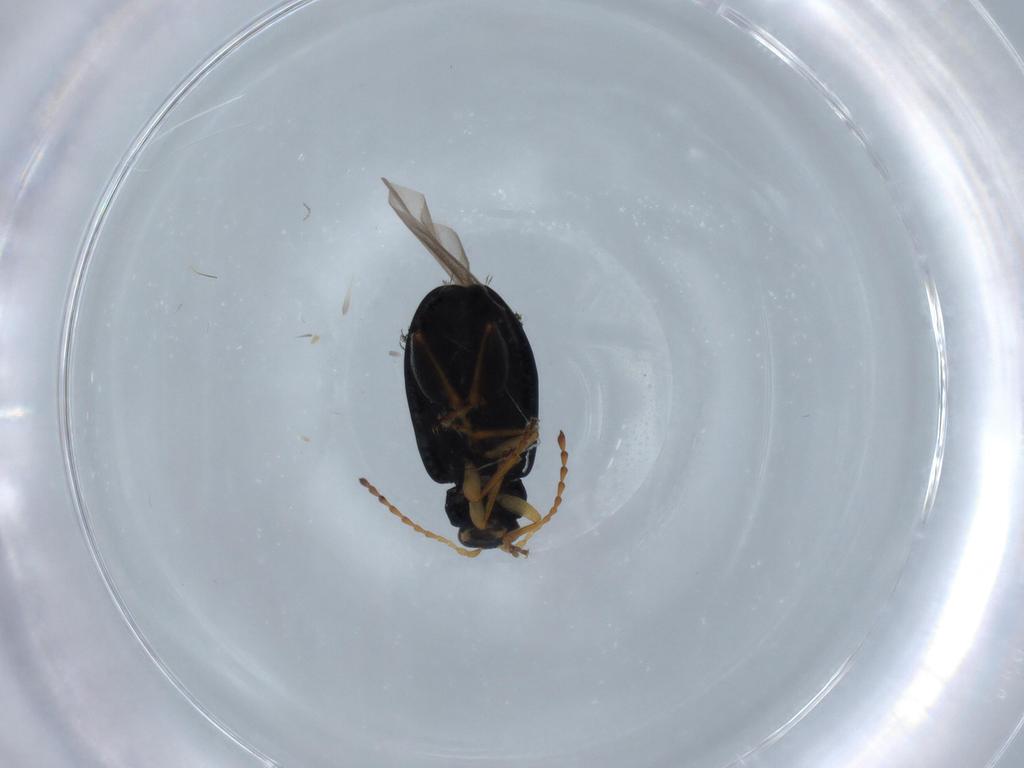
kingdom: Animalia
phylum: Arthropoda
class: Insecta
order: Coleoptera
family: Chrysomelidae
